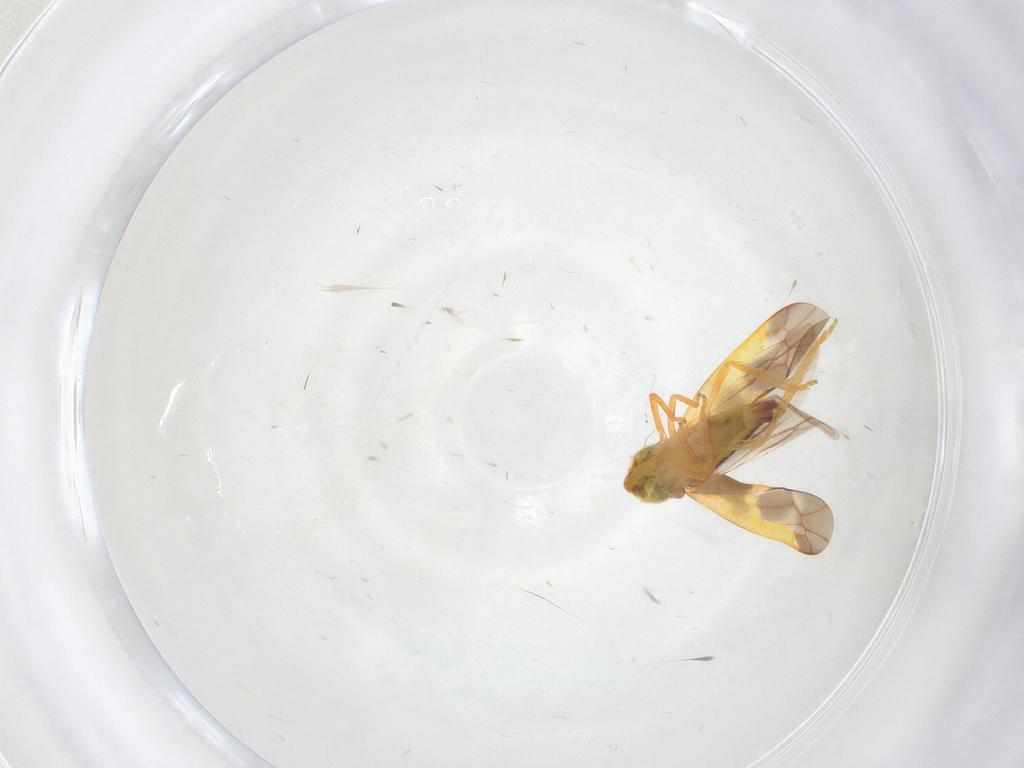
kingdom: Animalia
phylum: Arthropoda
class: Insecta
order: Hemiptera
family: Cicadellidae
